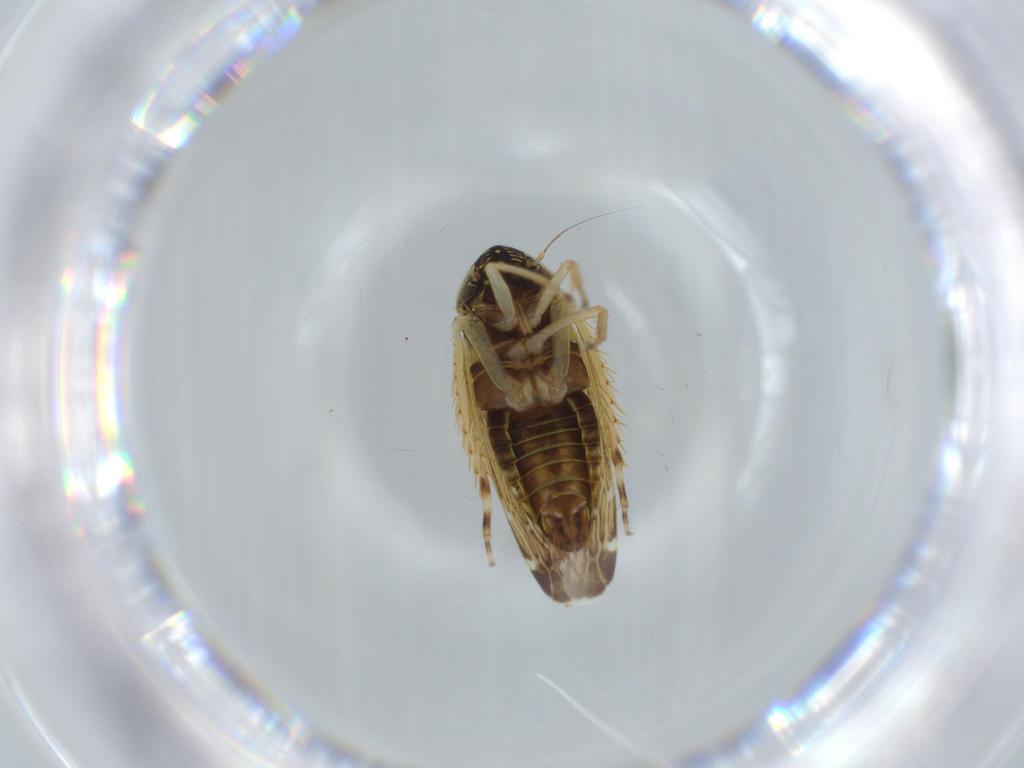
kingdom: Animalia
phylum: Arthropoda
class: Insecta
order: Hemiptera
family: Cicadellidae
